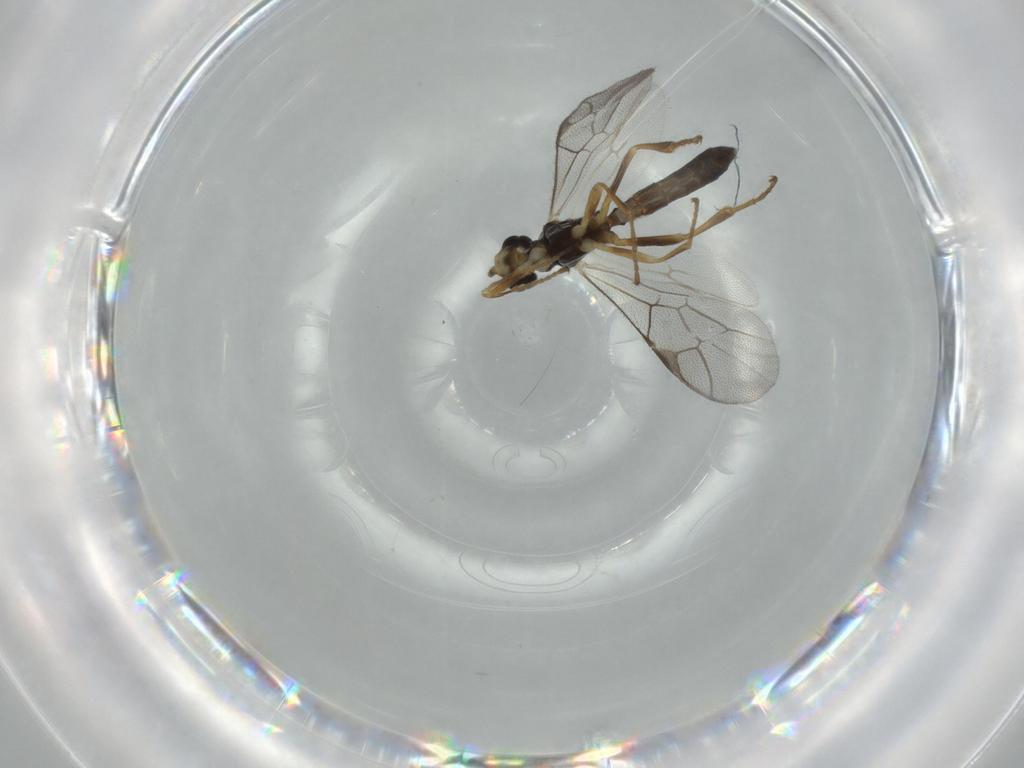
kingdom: Animalia
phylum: Arthropoda
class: Insecta
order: Hymenoptera
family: Ichneumonidae
